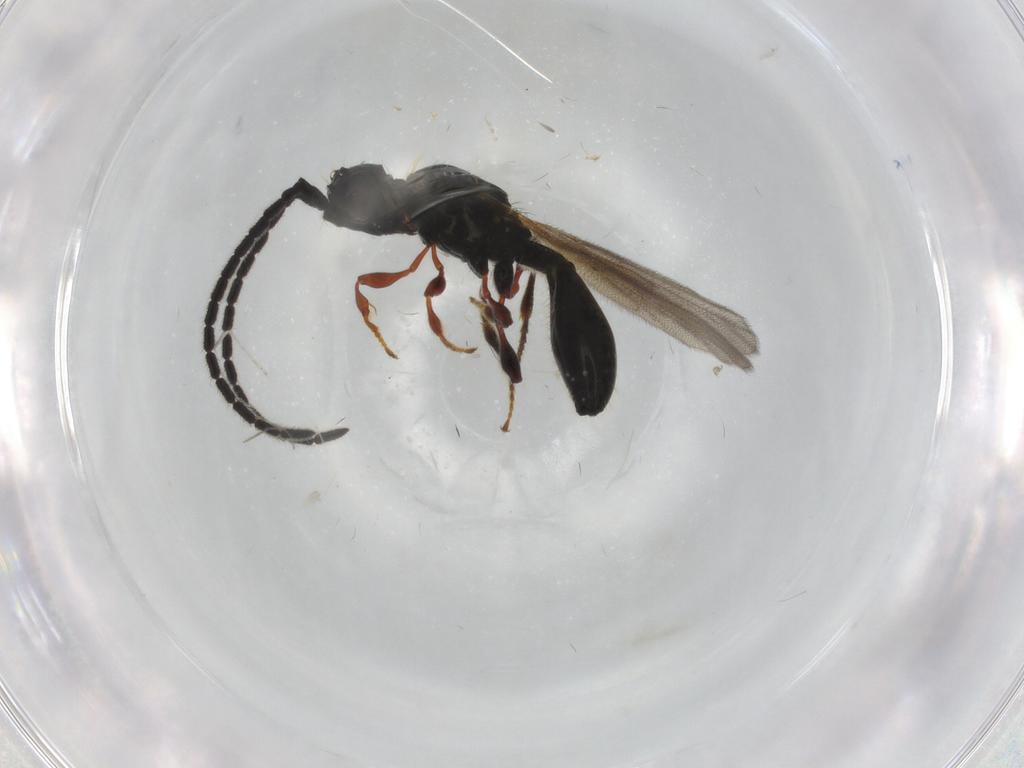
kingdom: Animalia
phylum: Arthropoda
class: Insecta
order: Hymenoptera
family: Diapriidae
